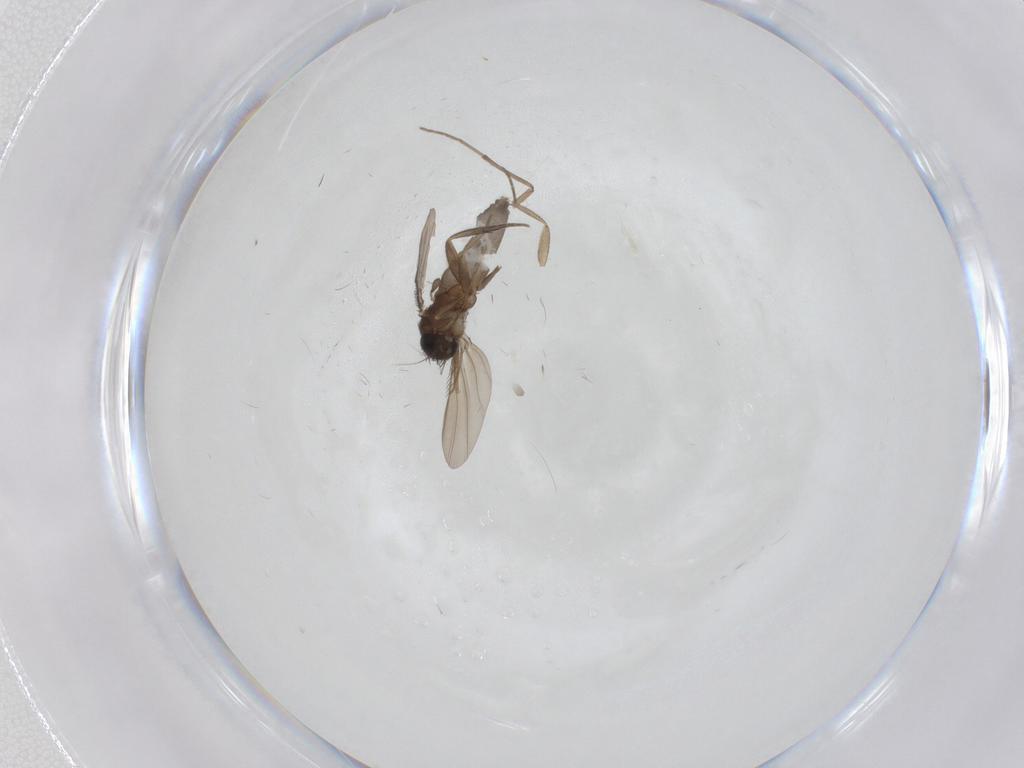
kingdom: Animalia
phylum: Arthropoda
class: Insecta
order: Diptera
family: Phoridae
